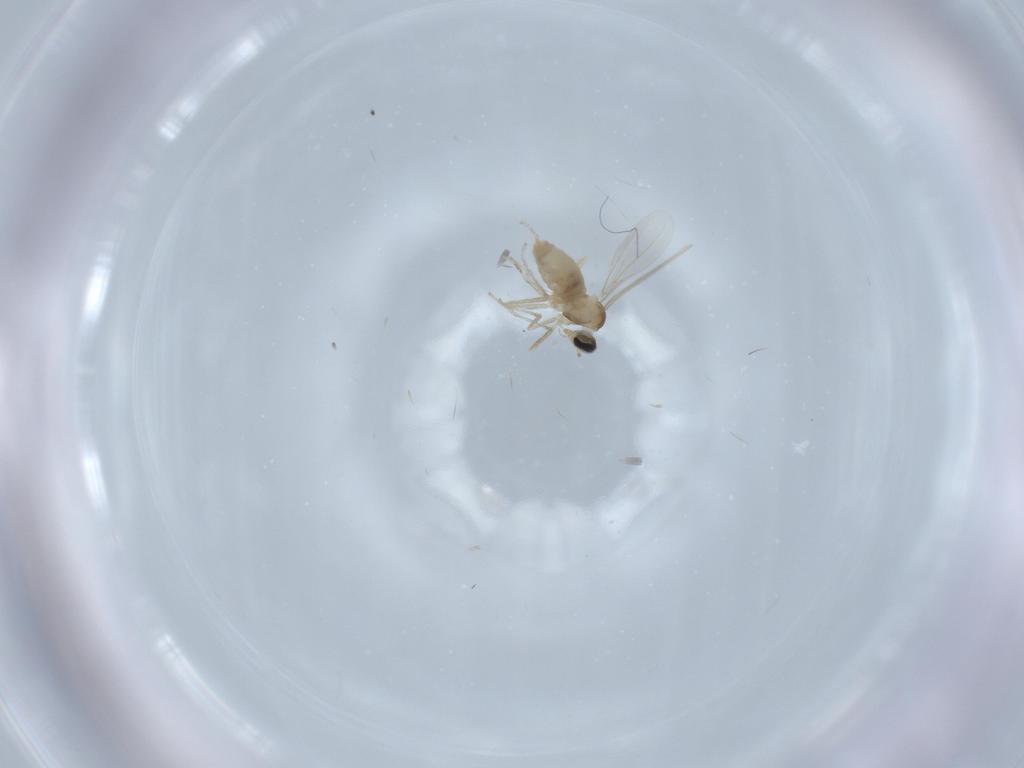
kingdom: Animalia
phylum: Arthropoda
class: Insecta
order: Diptera
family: Cecidomyiidae
